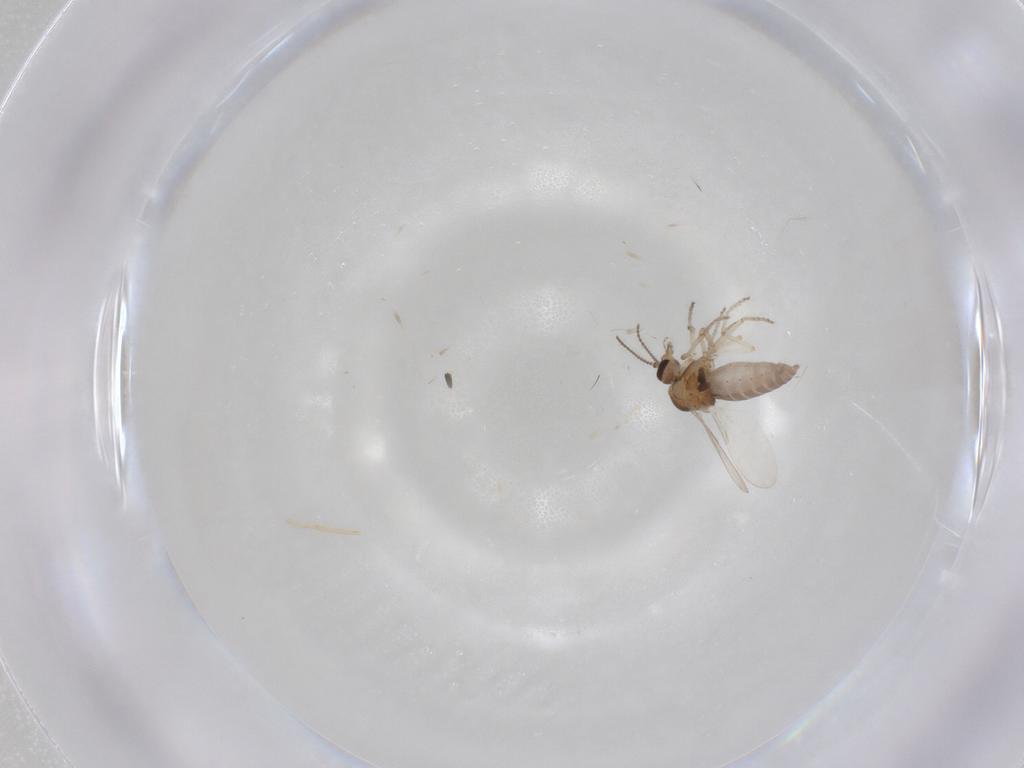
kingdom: Animalia
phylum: Arthropoda
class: Insecta
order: Diptera
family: Ceratopogonidae
